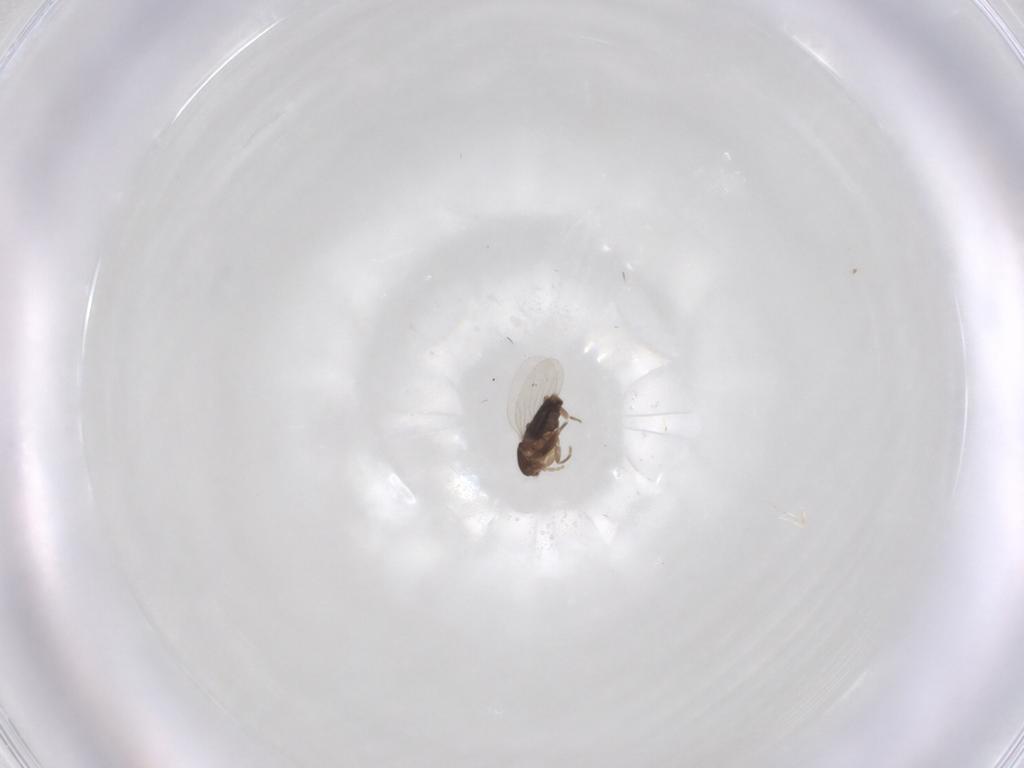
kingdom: Animalia
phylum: Arthropoda
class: Insecta
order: Diptera
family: Phoridae
